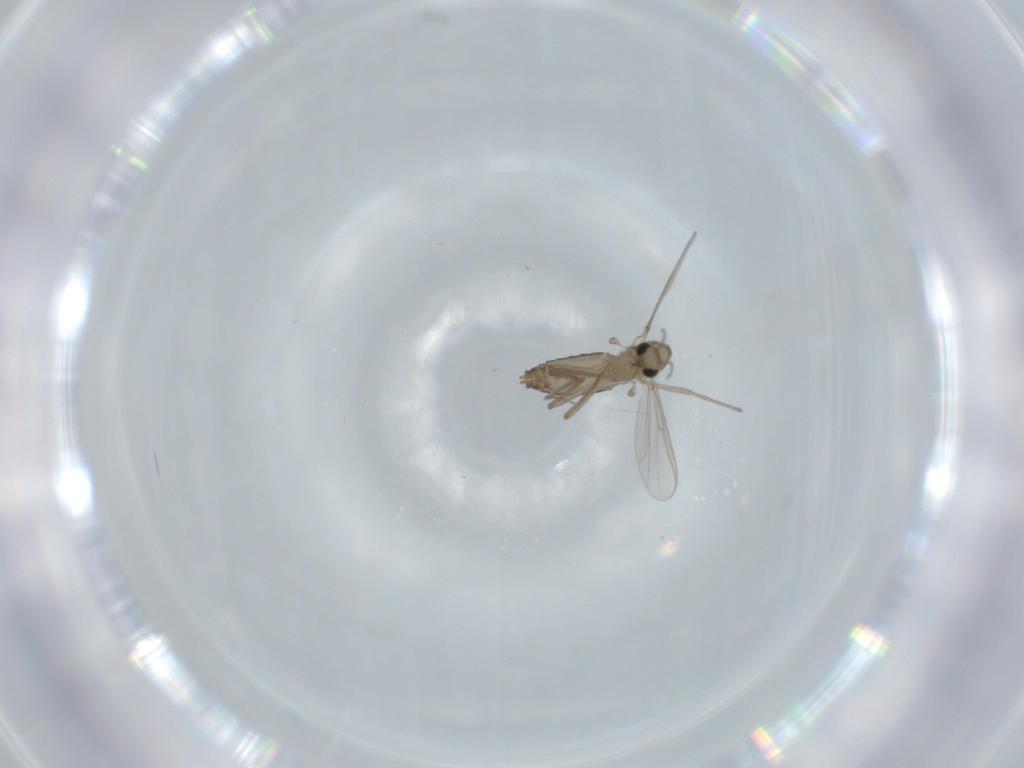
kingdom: Animalia
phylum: Arthropoda
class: Insecta
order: Diptera
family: Chironomidae
